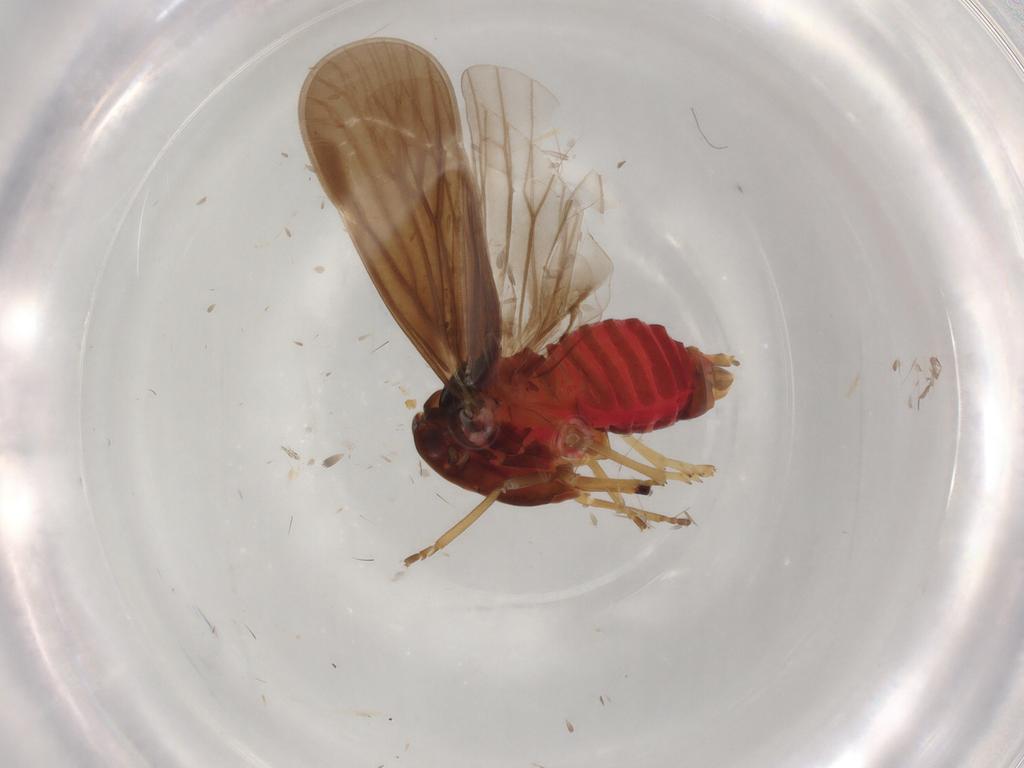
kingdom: Animalia
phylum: Arthropoda
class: Insecta
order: Hemiptera
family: Derbidae
